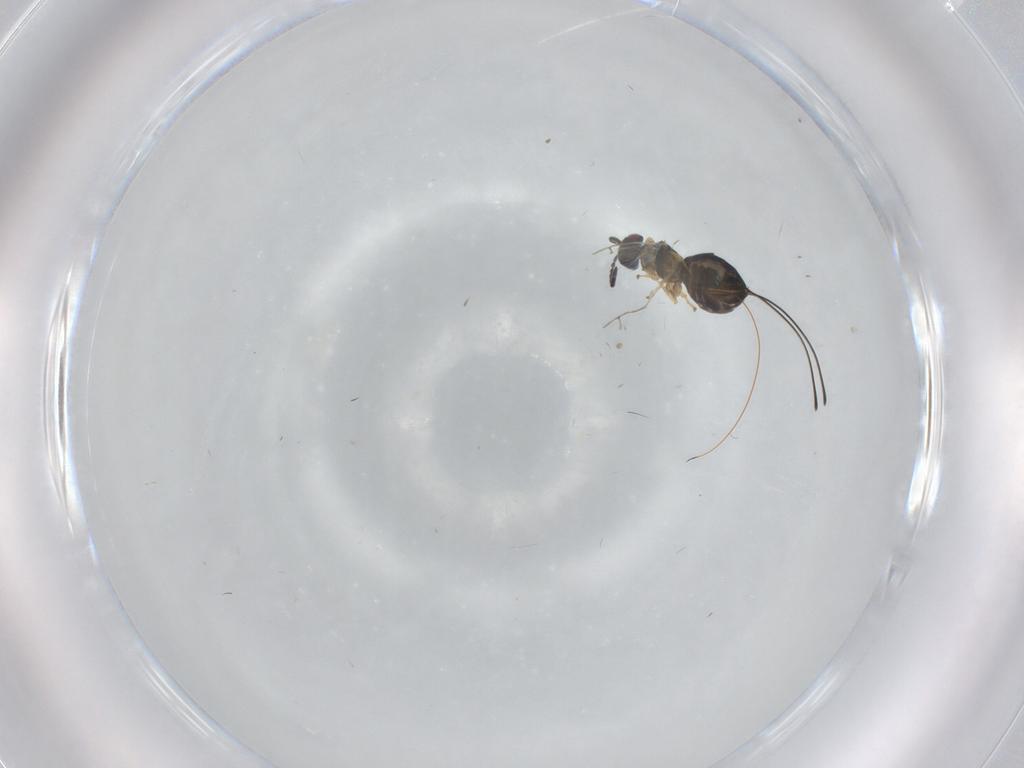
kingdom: Animalia
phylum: Arthropoda
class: Insecta
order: Hymenoptera
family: Agaonidae
